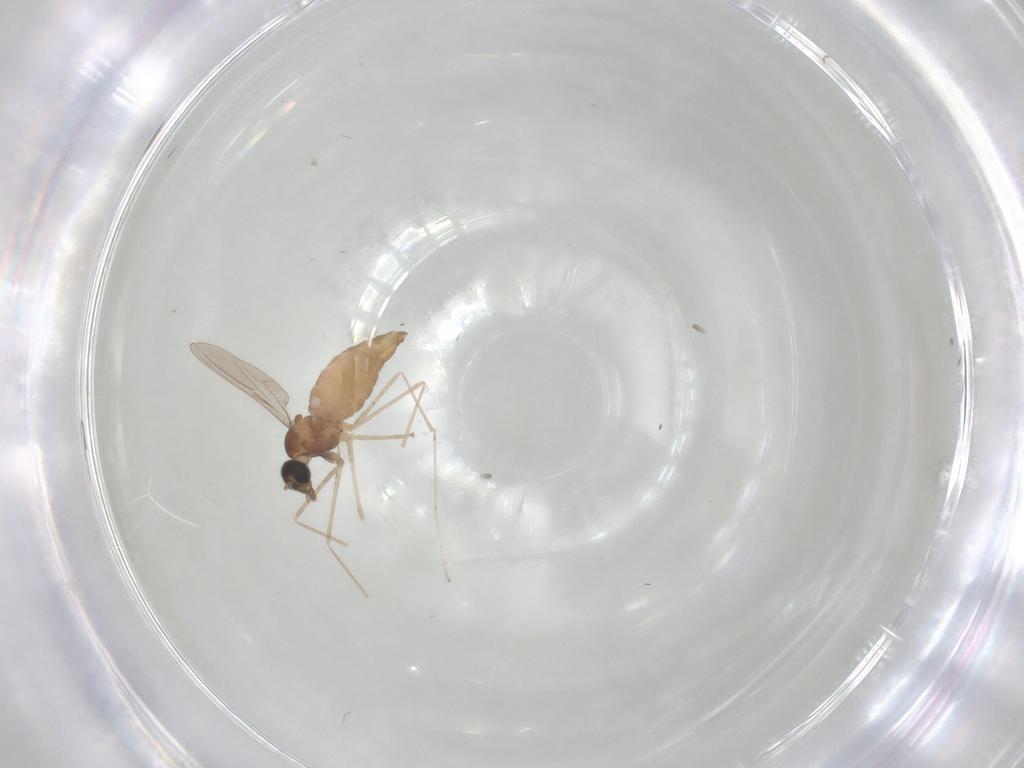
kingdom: Animalia
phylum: Arthropoda
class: Insecta
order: Diptera
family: Cecidomyiidae
